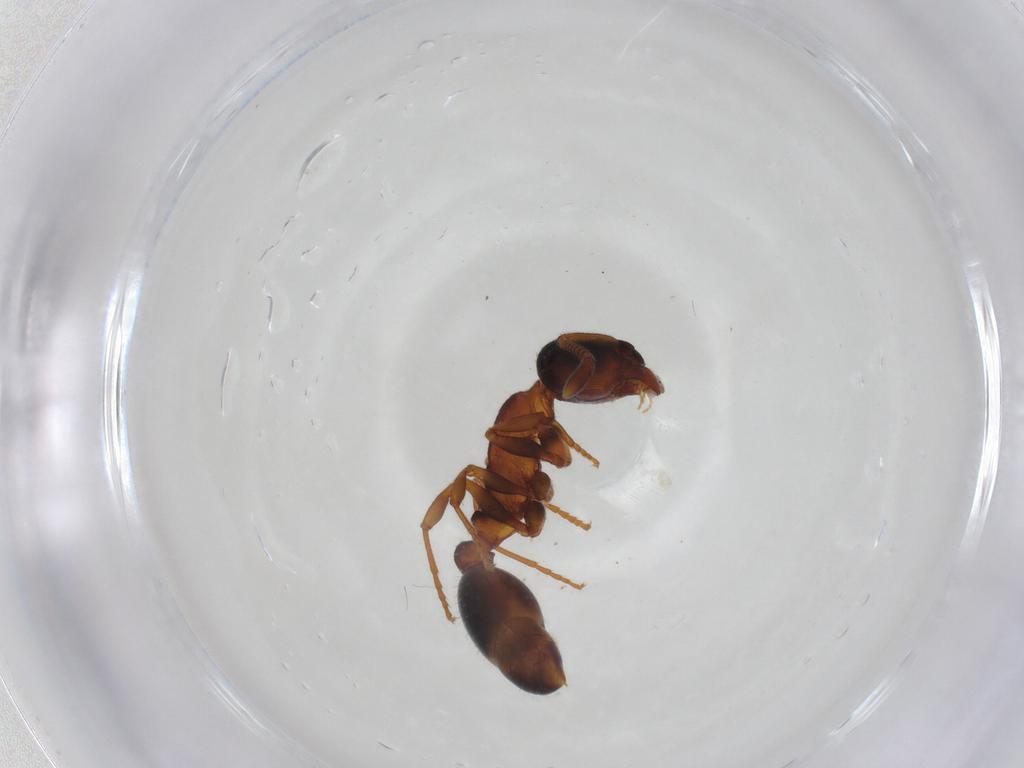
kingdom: Animalia
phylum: Arthropoda
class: Insecta
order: Hymenoptera
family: Formicidae
